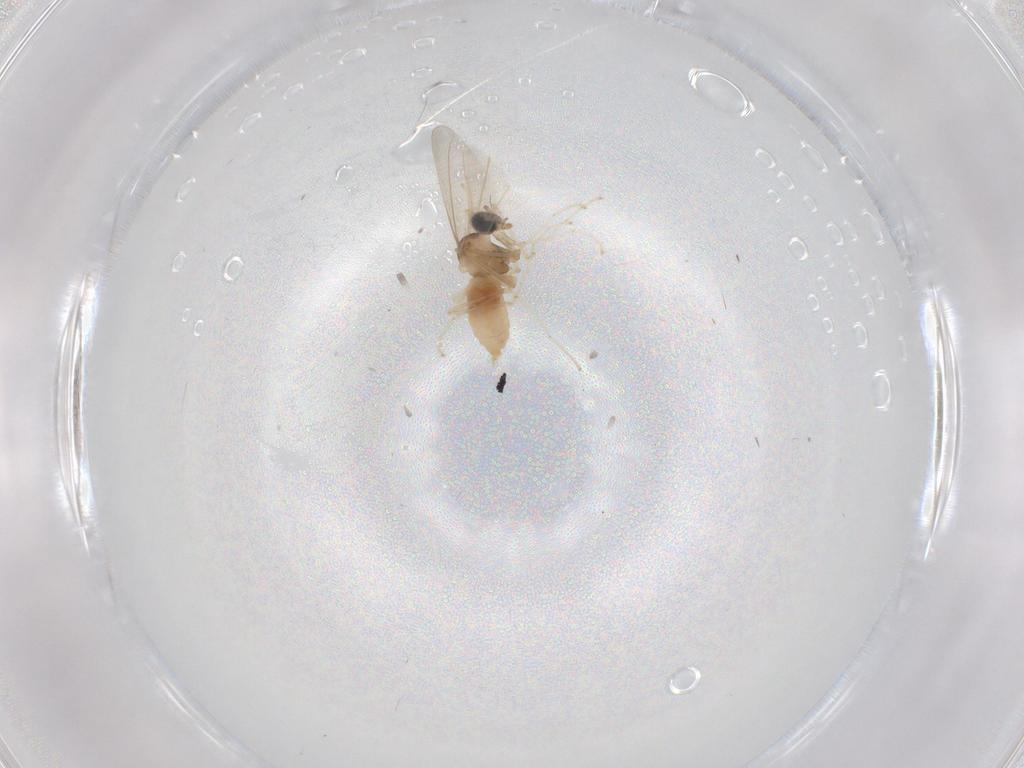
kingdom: Animalia
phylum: Arthropoda
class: Insecta
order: Diptera
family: Cecidomyiidae
